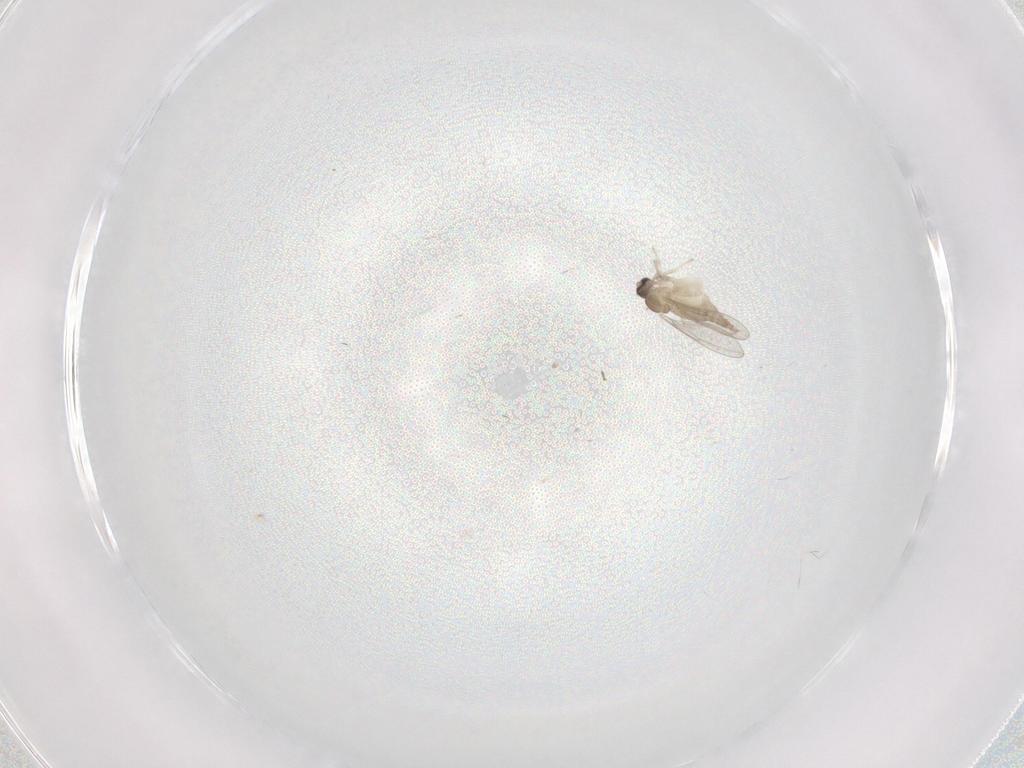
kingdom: Animalia
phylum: Arthropoda
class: Insecta
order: Diptera
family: Cecidomyiidae
